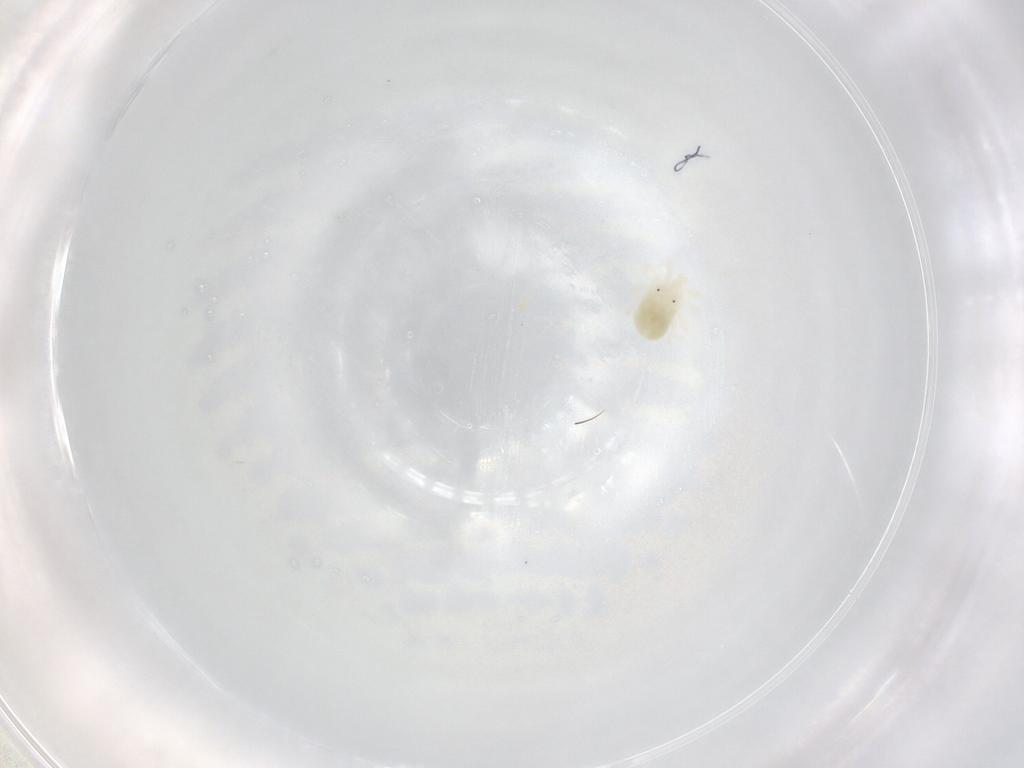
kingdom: Animalia
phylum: Arthropoda
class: Arachnida
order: Trombidiformes
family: Anystidae
